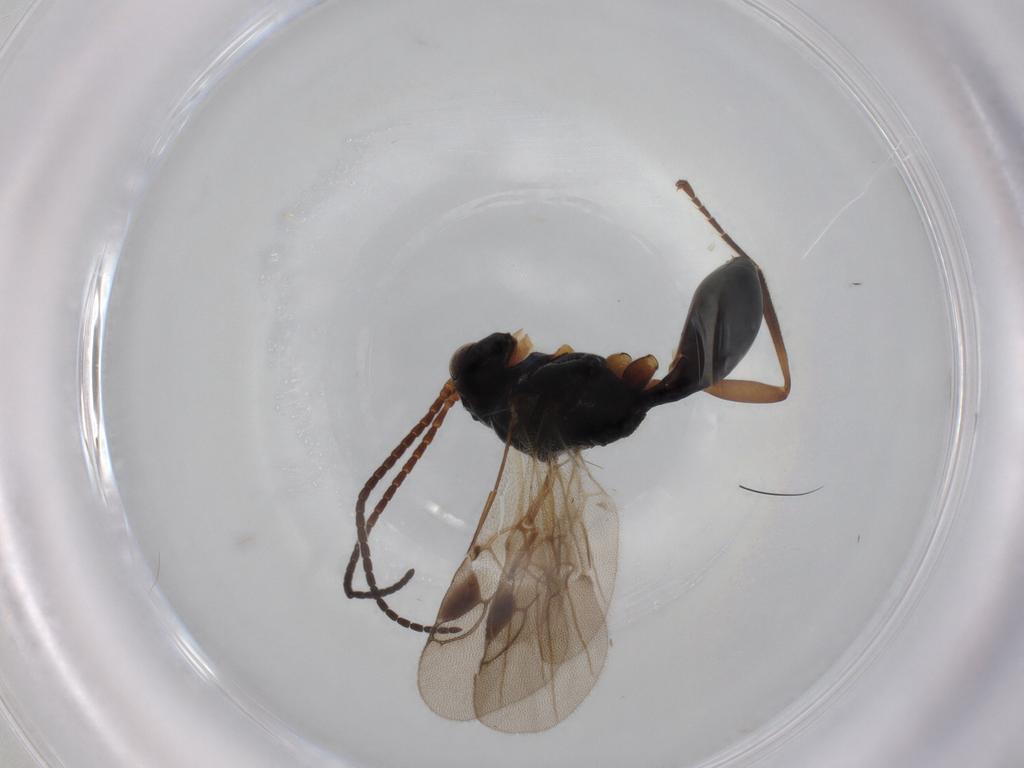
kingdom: Animalia
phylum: Arthropoda
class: Insecta
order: Hymenoptera
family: Braconidae
